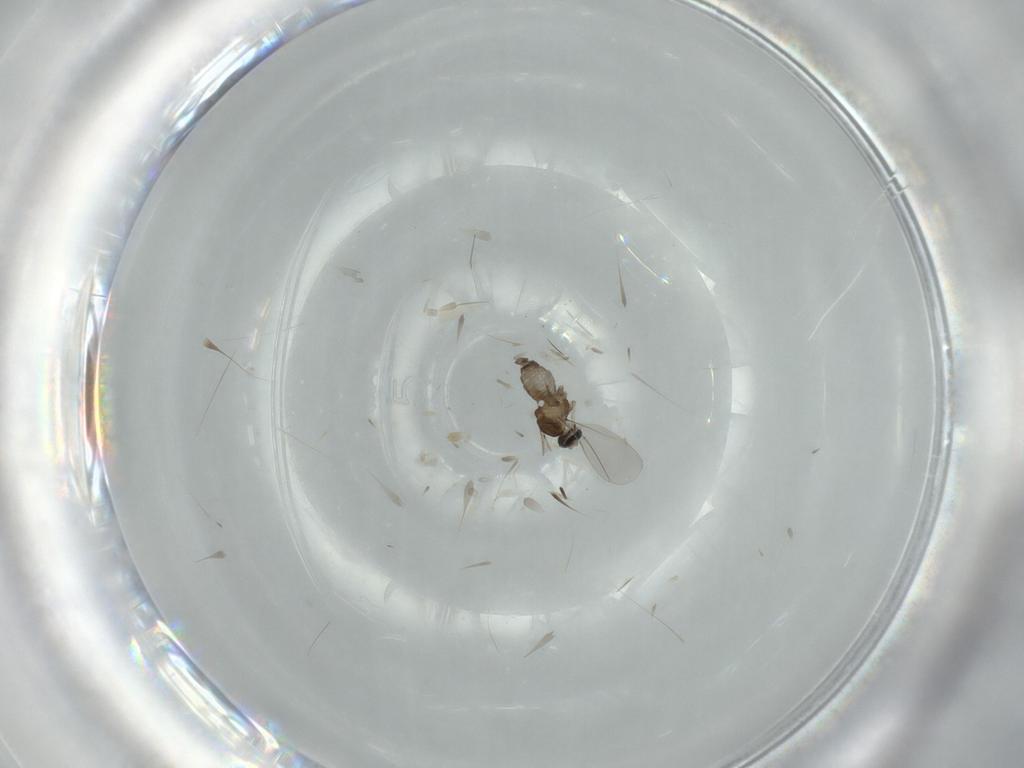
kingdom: Animalia
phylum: Arthropoda
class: Insecta
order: Diptera
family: Cecidomyiidae
